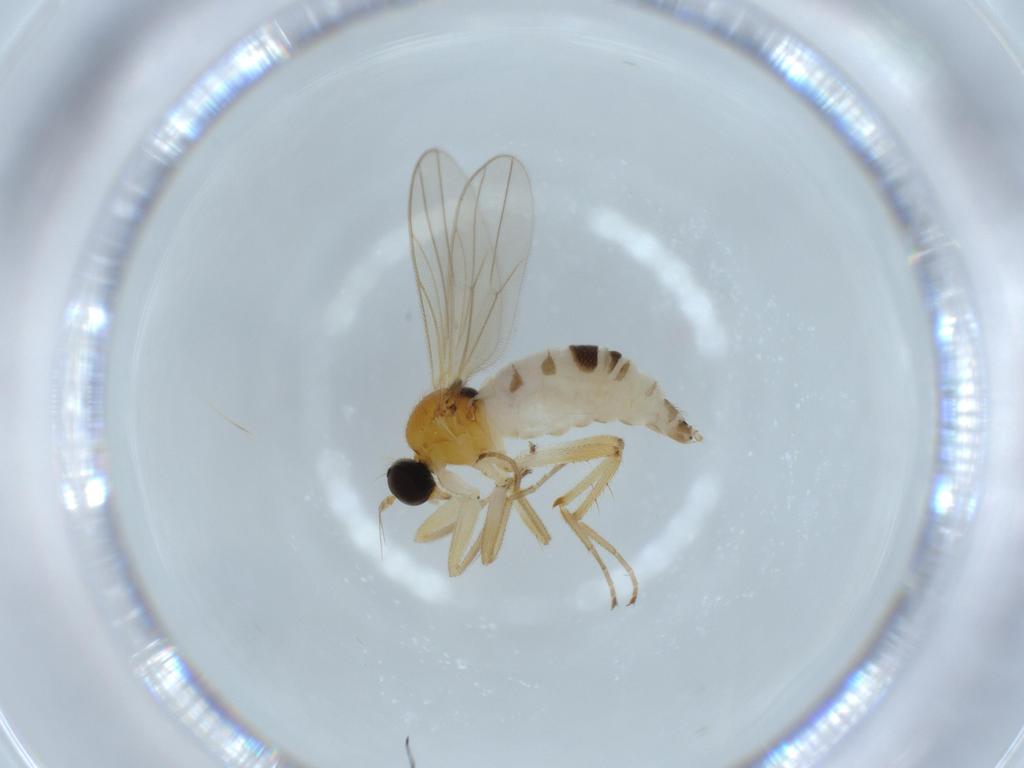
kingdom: Animalia
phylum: Arthropoda
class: Insecta
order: Diptera
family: Hybotidae
